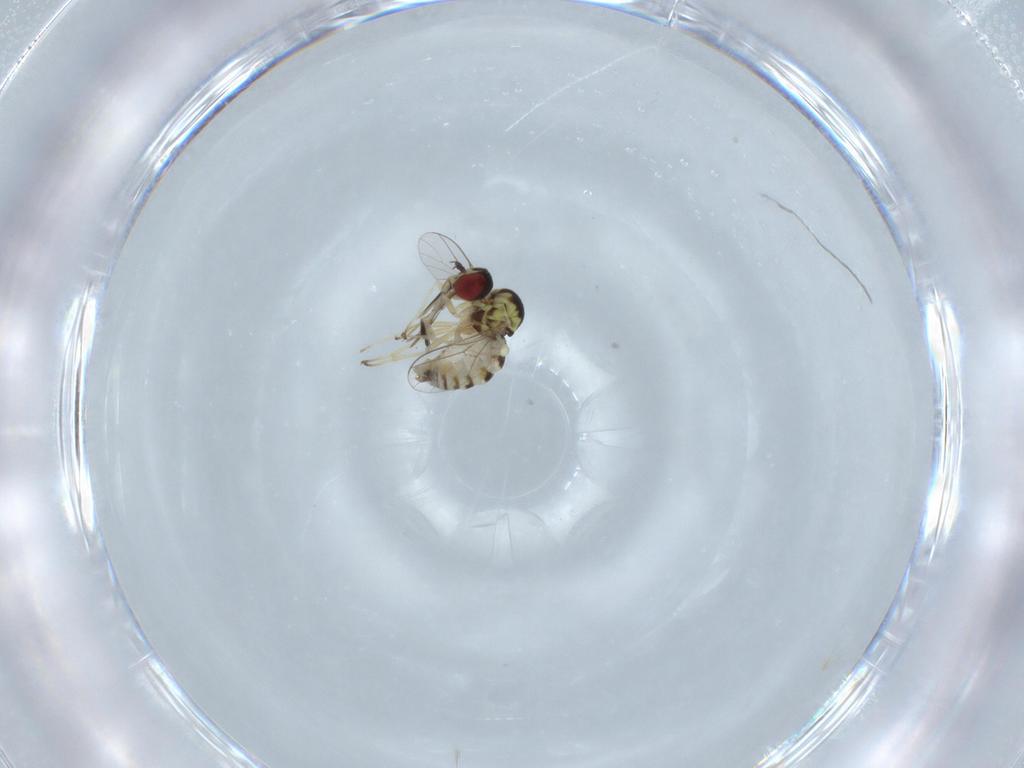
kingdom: Animalia
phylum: Arthropoda
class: Insecta
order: Diptera
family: Bombyliidae
